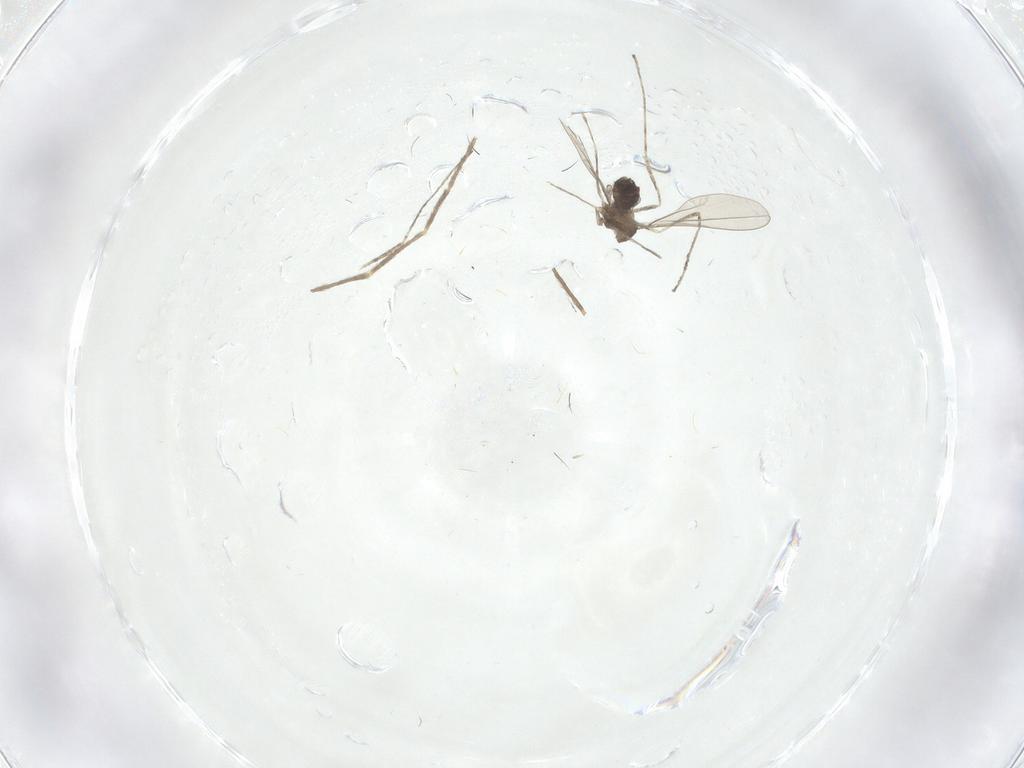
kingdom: Animalia
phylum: Arthropoda
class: Insecta
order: Diptera
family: Chironomidae
